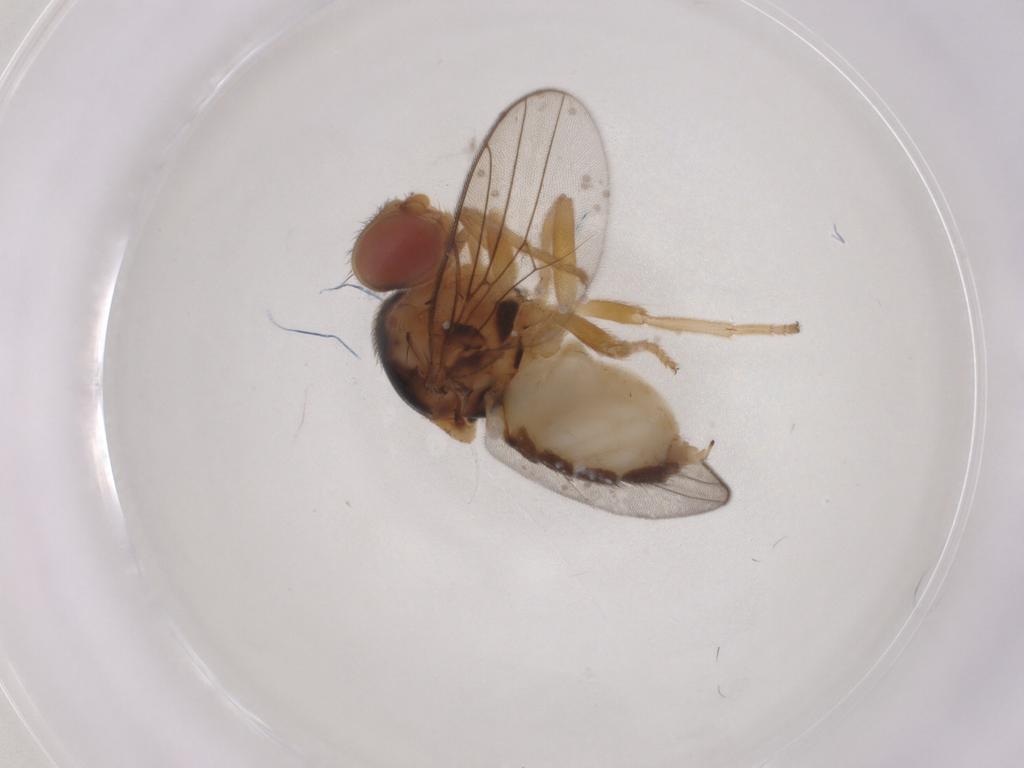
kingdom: Animalia
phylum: Arthropoda
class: Insecta
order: Diptera
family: Chloropidae
